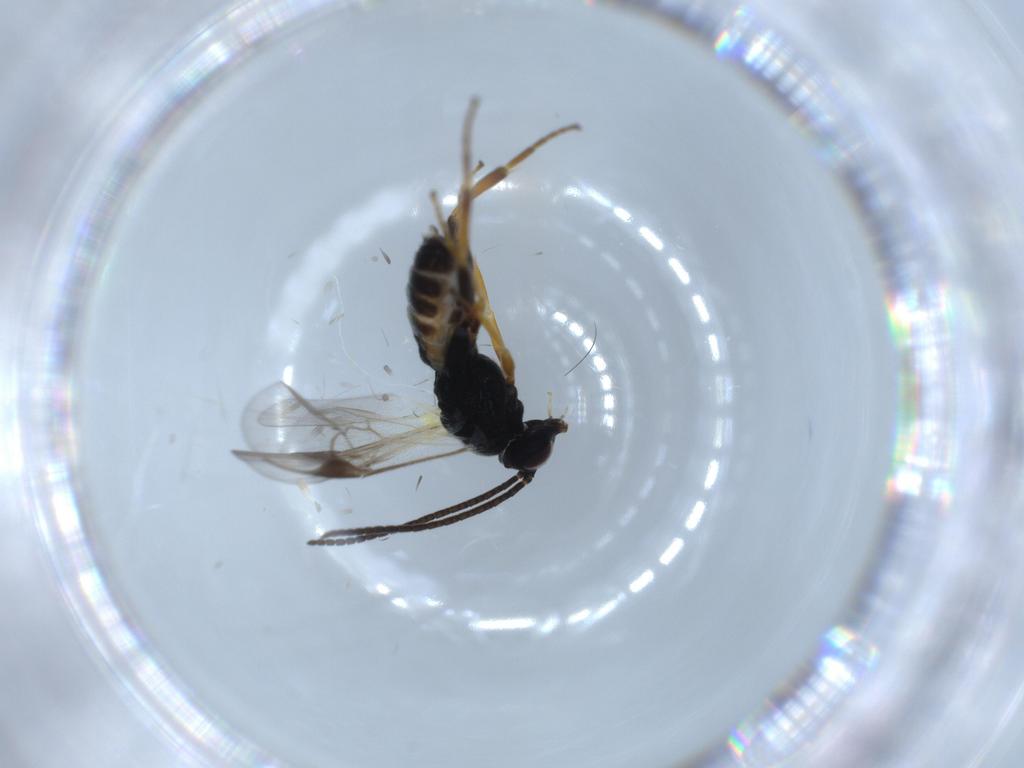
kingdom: Animalia
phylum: Arthropoda
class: Insecta
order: Hymenoptera
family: Braconidae
